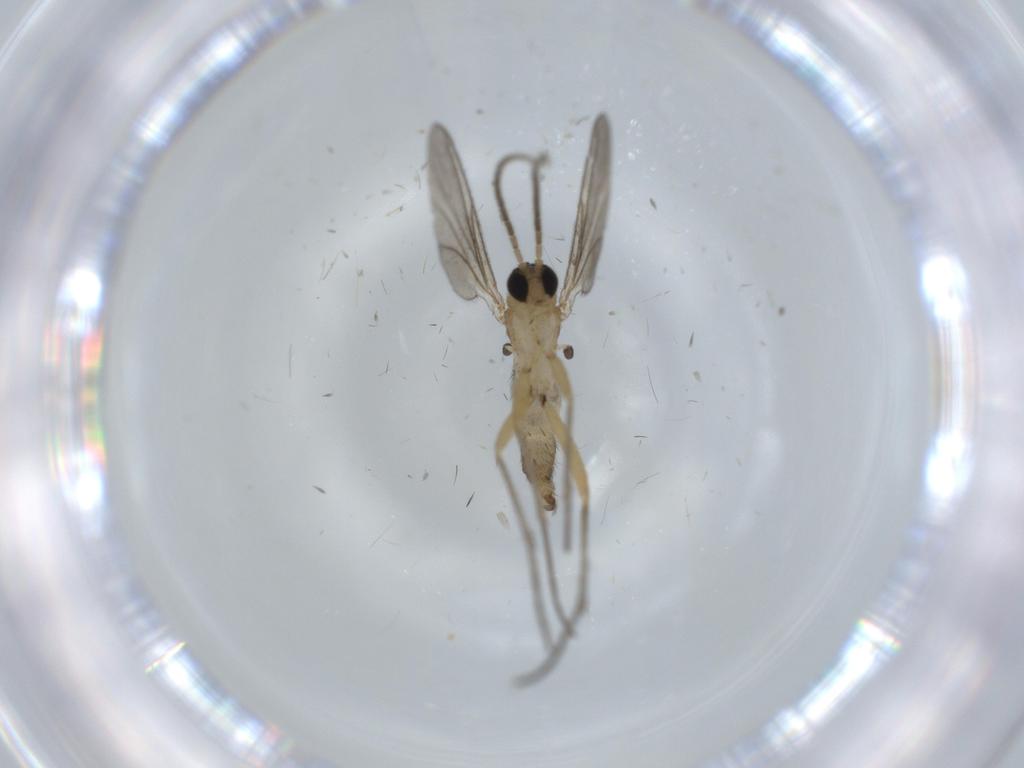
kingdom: Animalia
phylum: Arthropoda
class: Insecta
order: Diptera
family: Sciaridae
